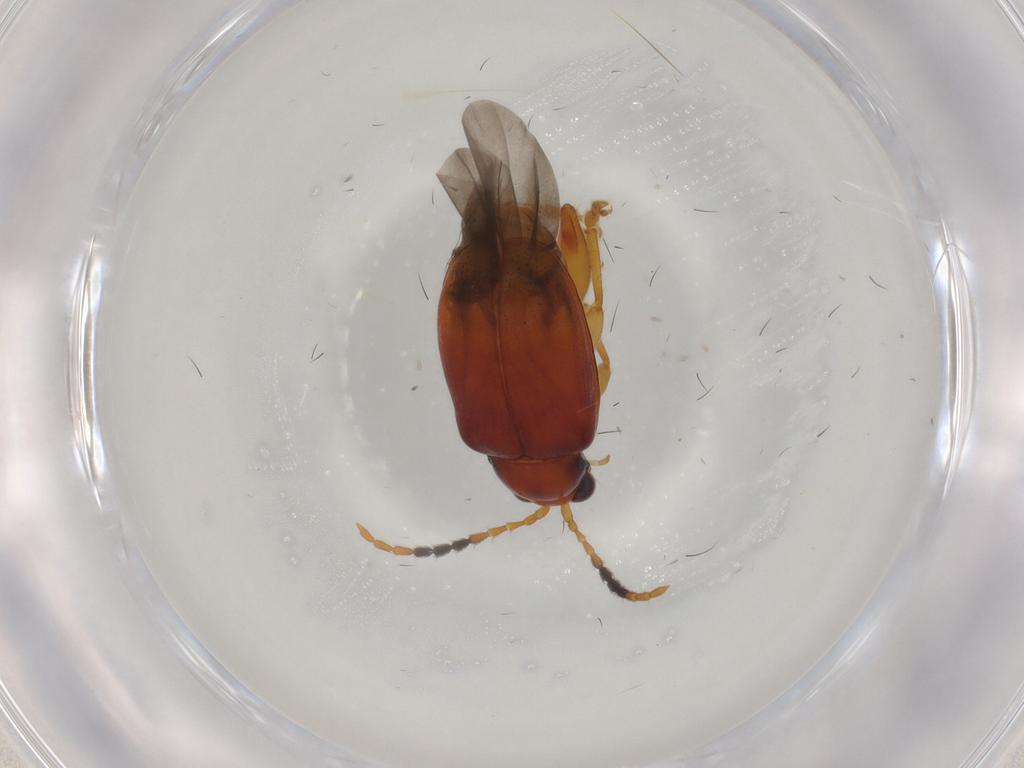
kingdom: Animalia
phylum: Arthropoda
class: Insecta
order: Coleoptera
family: Chrysomelidae
